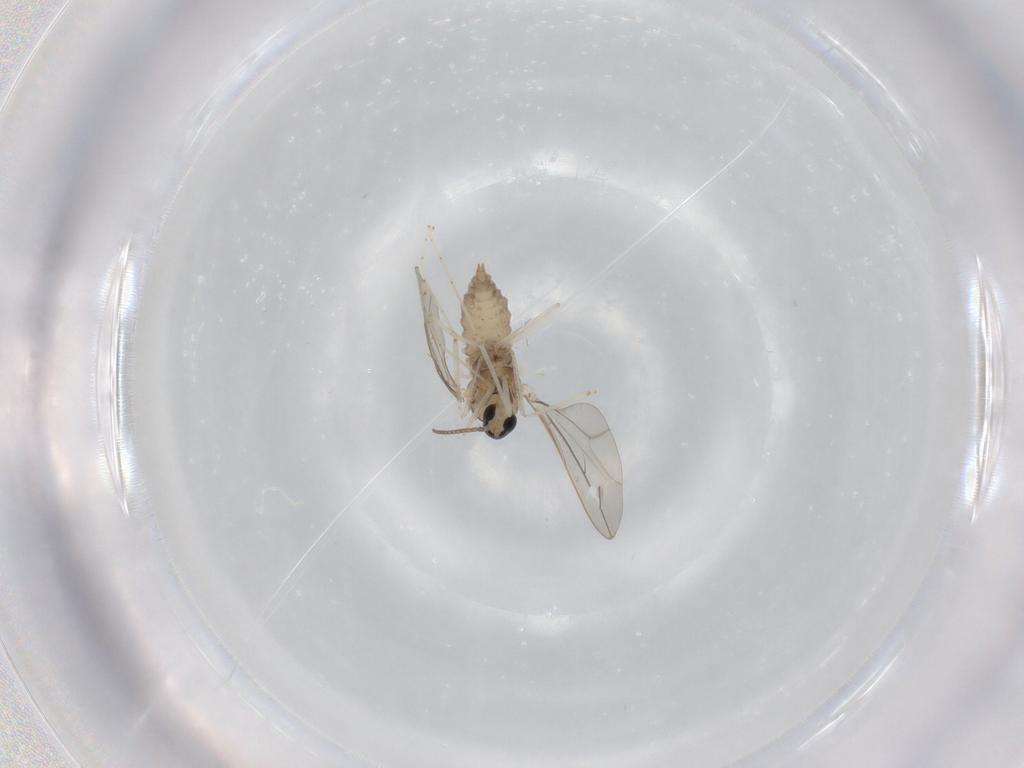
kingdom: Animalia
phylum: Arthropoda
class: Insecta
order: Diptera
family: Cecidomyiidae
